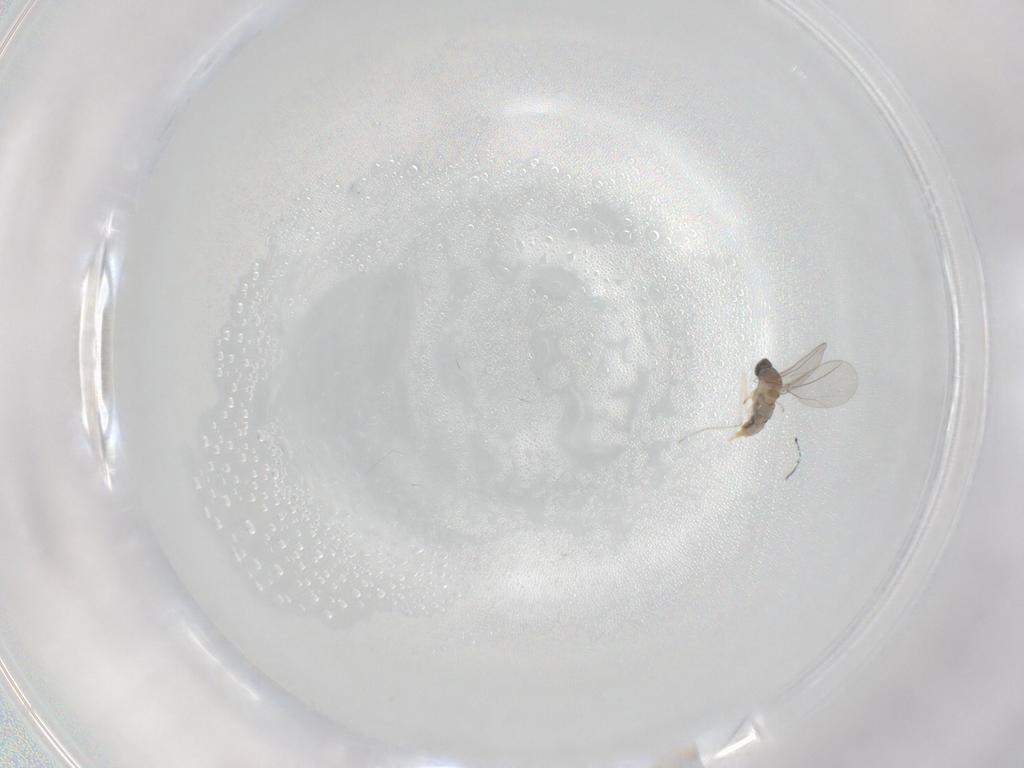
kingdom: Animalia
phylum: Arthropoda
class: Insecta
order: Diptera
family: Cecidomyiidae
